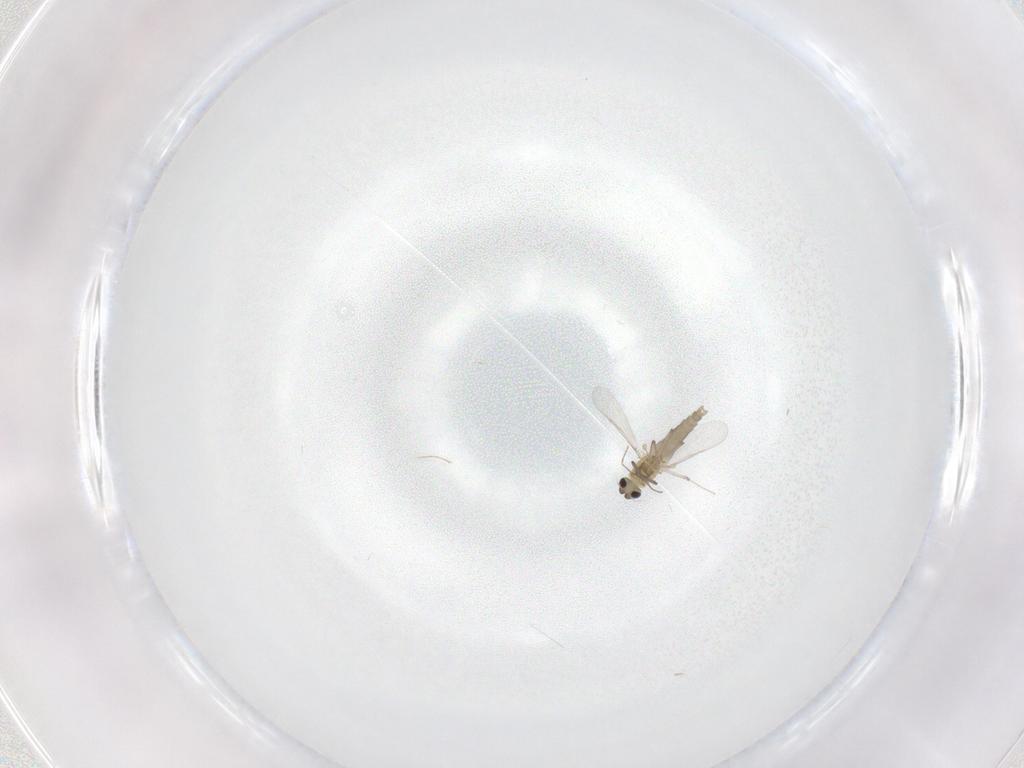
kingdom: Animalia
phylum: Arthropoda
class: Insecta
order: Diptera
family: Chironomidae
